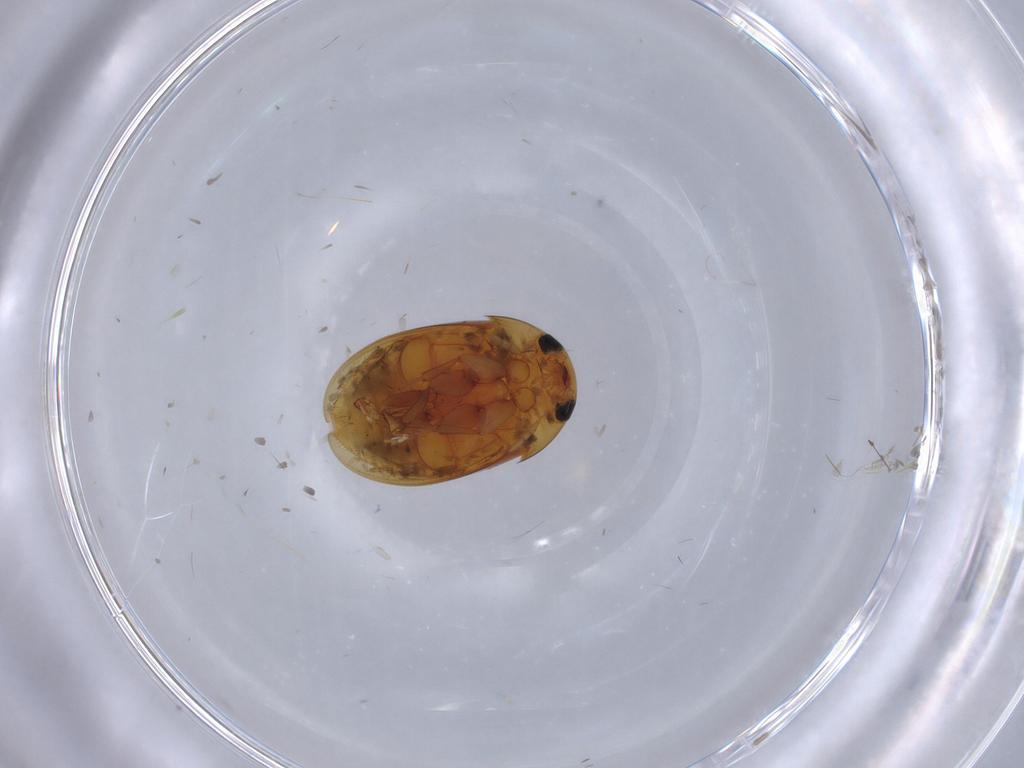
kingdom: Animalia
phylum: Arthropoda
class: Insecta
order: Coleoptera
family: Phalacridae
